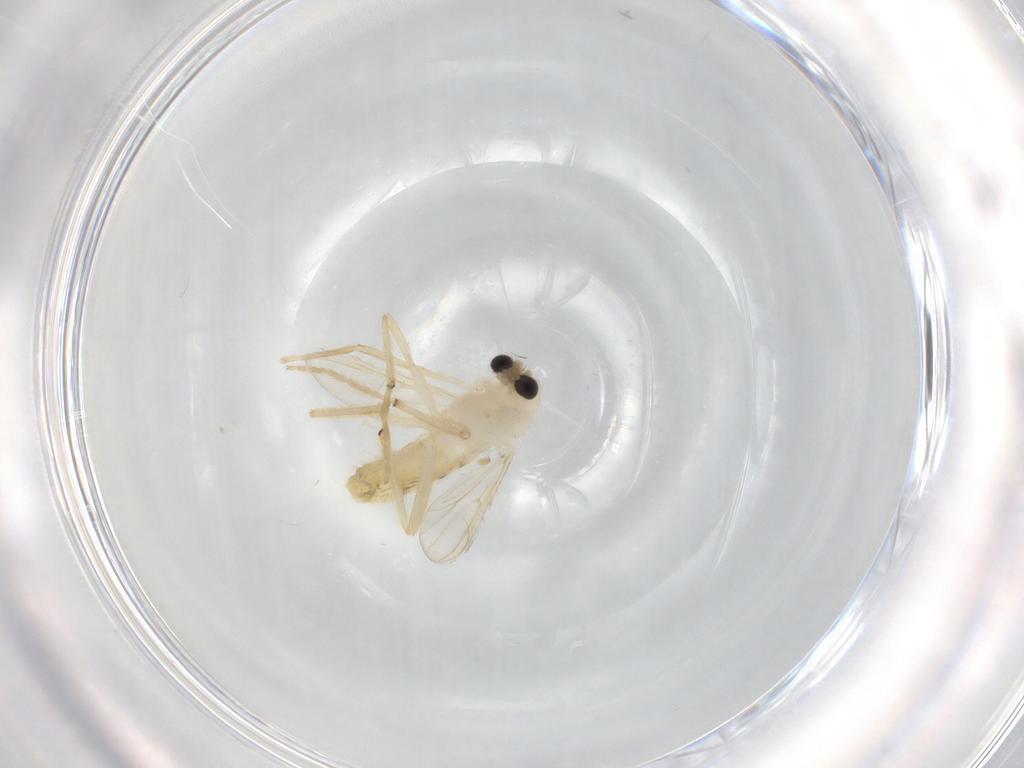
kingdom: Animalia
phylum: Arthropoda
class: Insecta
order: Diptera
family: Chironomidae
